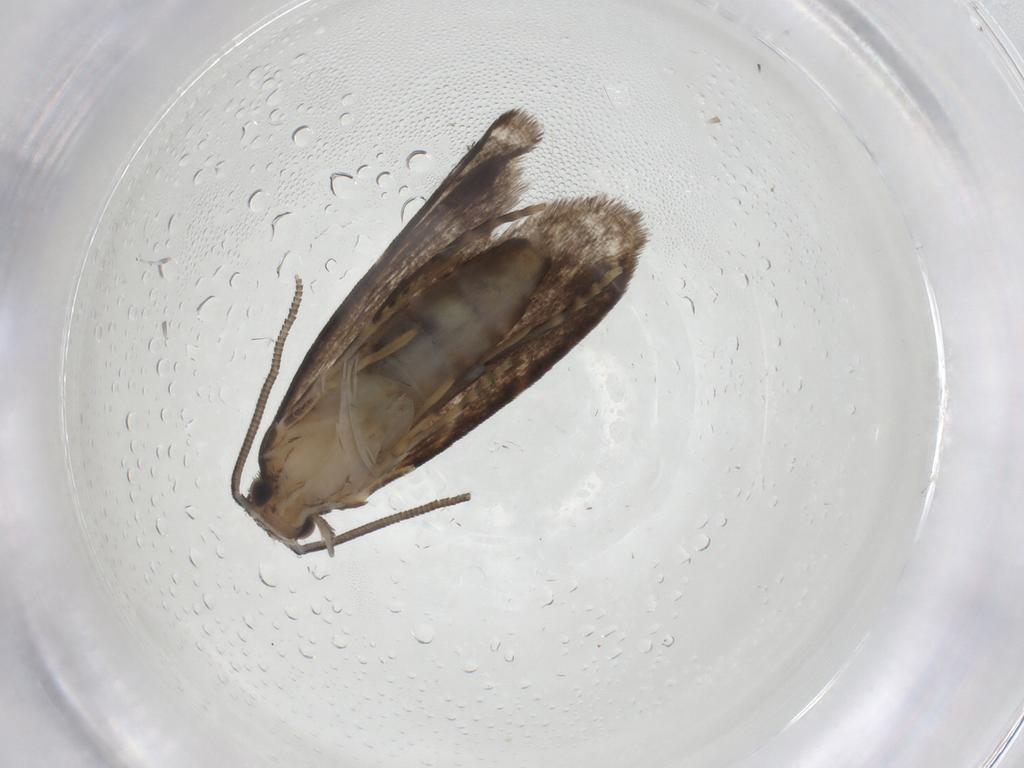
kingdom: Animalia
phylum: Arthropoda
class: Insecta
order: Lepidoptera
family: Dryadaulidae
